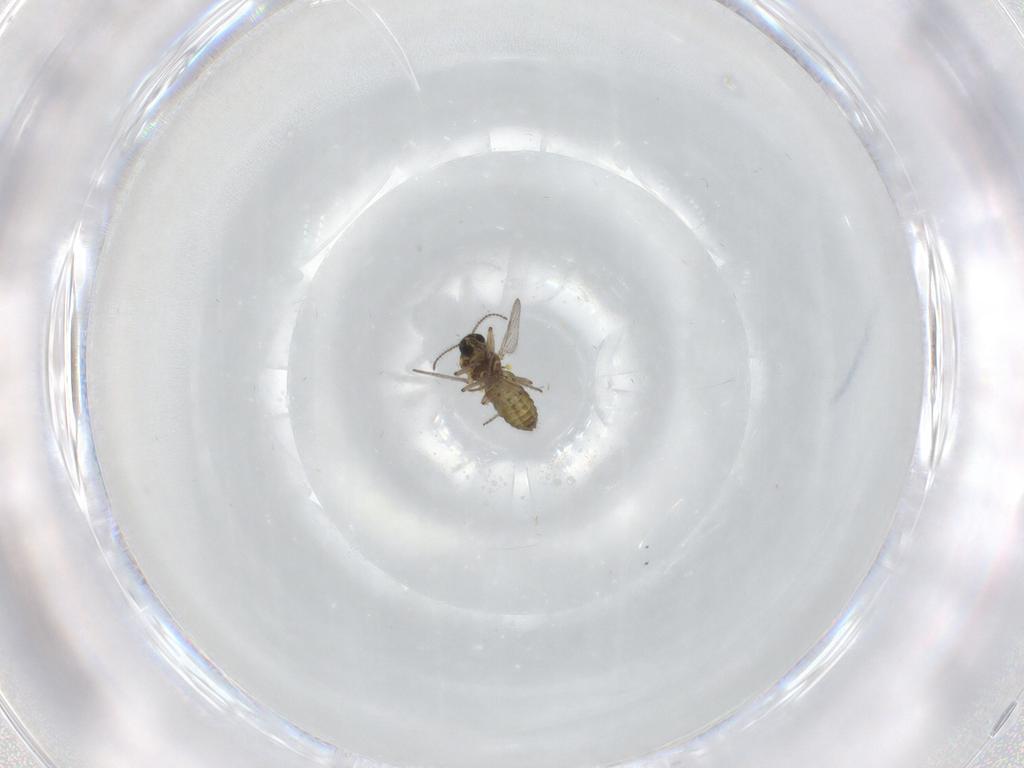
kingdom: Animalia
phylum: Arthropoda
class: Insecta
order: Diptera
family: Ceratopogonidae
